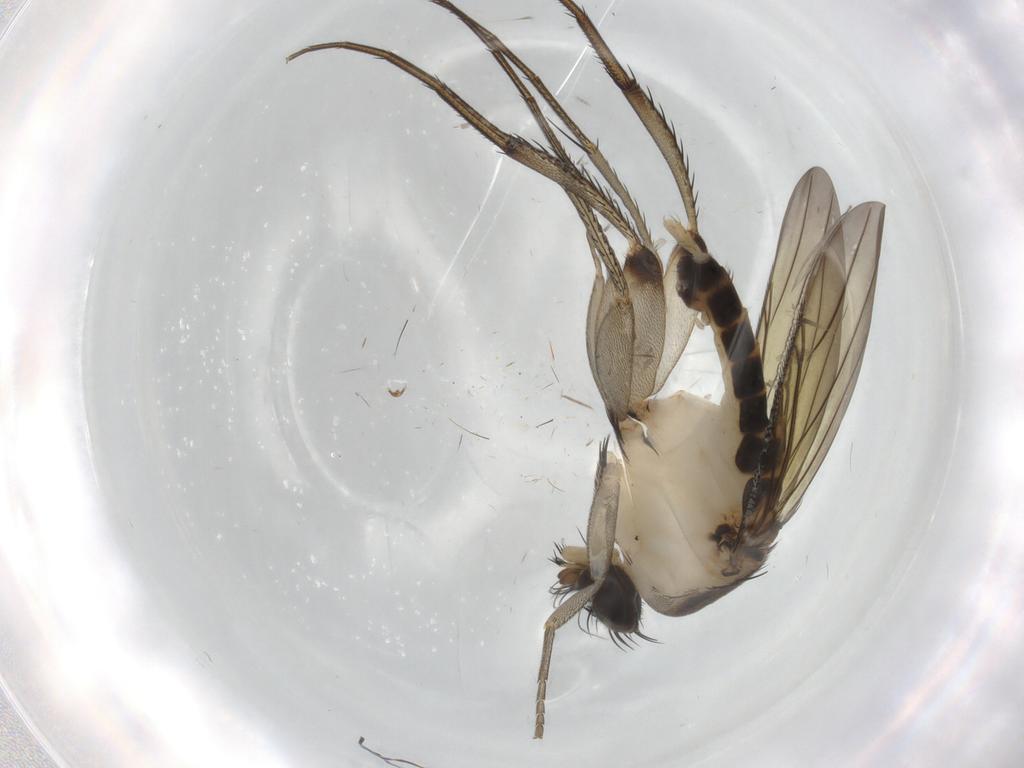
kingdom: Animalia
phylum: Arthropoda
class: Insecta
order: Diptera
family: Phoridae
